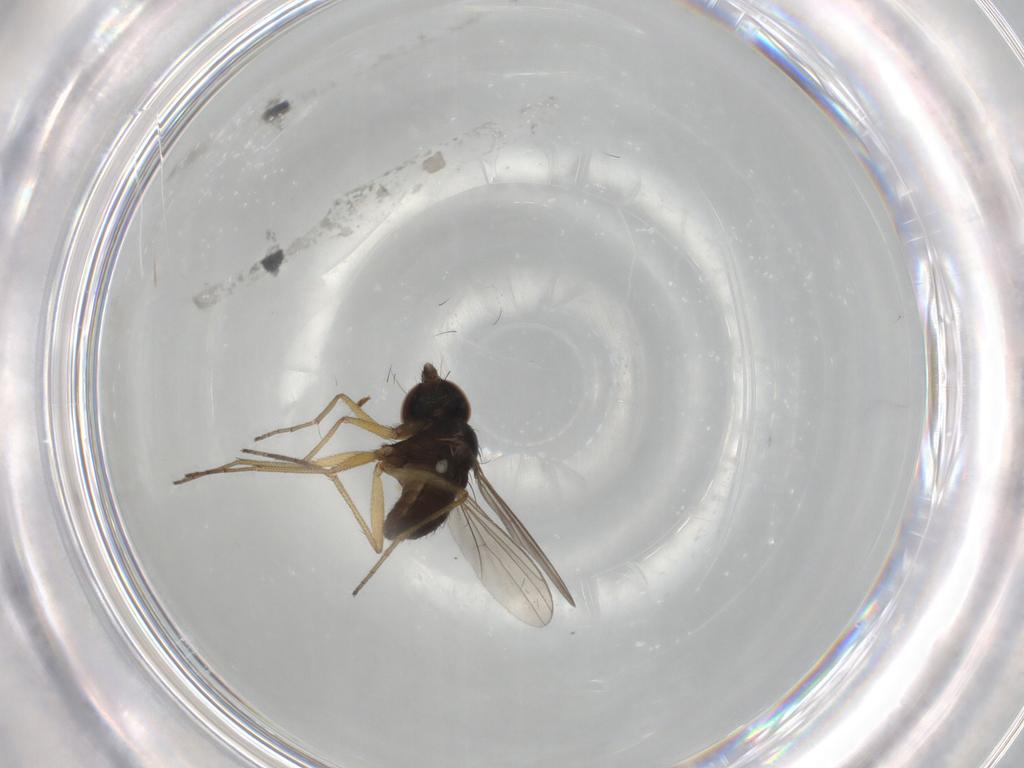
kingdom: Animalia
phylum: Arthropoda
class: Insecta
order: Diptera
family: Dolichopodidae
